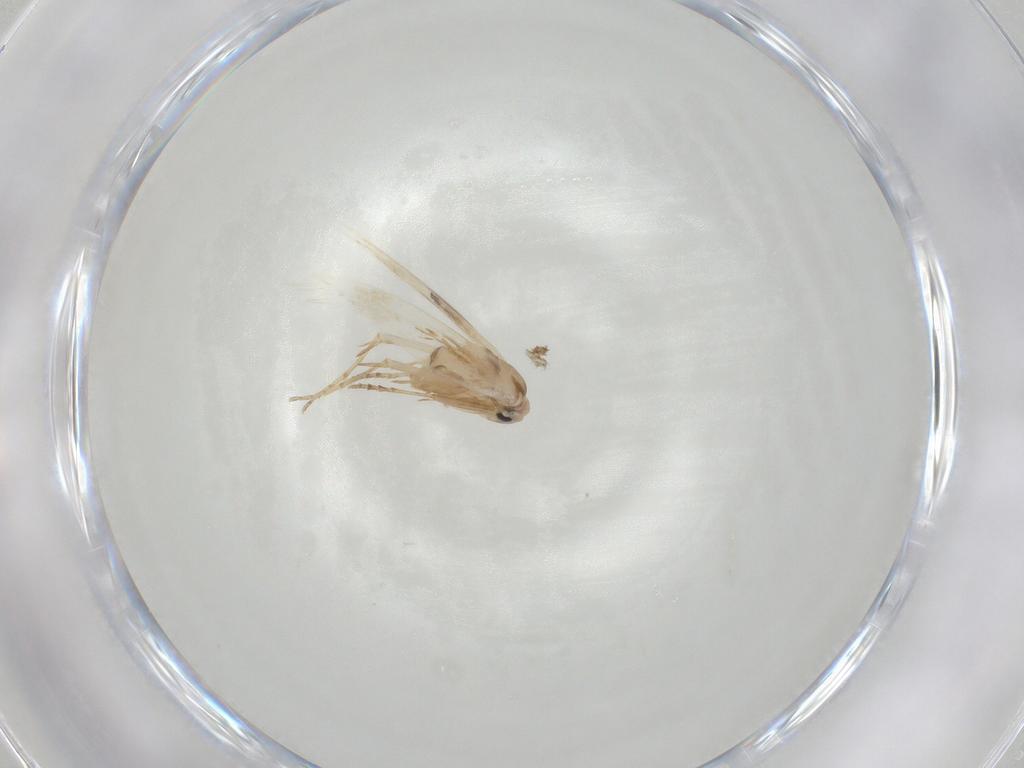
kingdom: Animalia
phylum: Arthropoda
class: Insecta
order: Lepidoptera
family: Bucculatricidae
